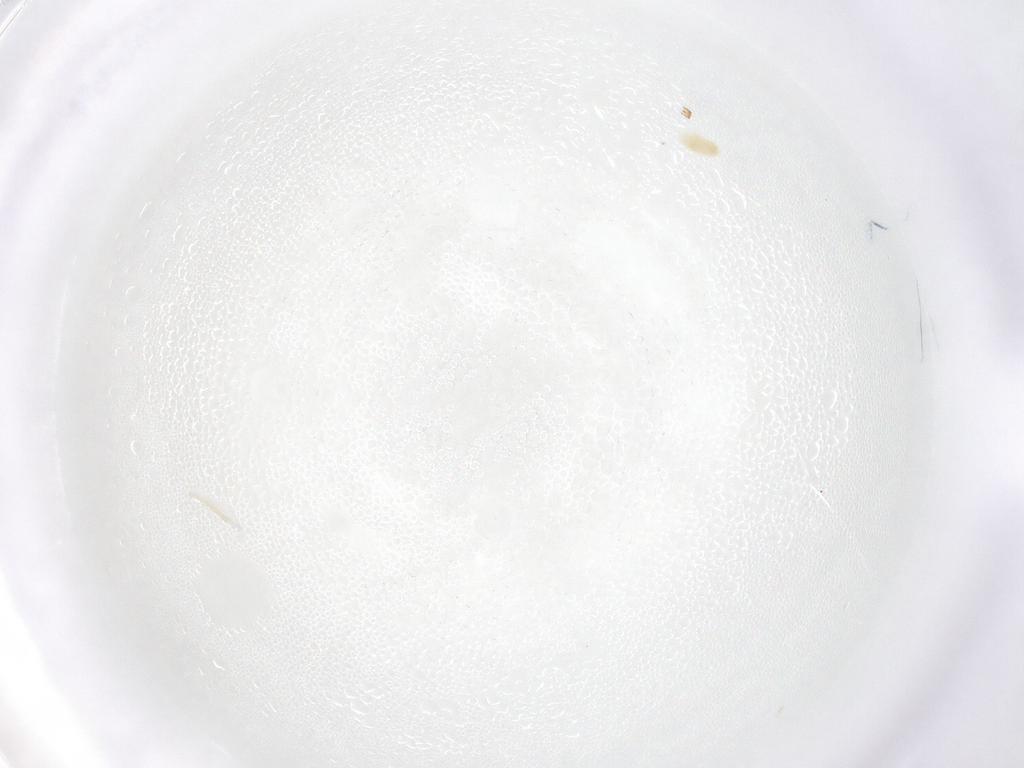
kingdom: Animalia
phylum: Arthropoda
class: Arachnida
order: Trombidiformes
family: Eupodidae
